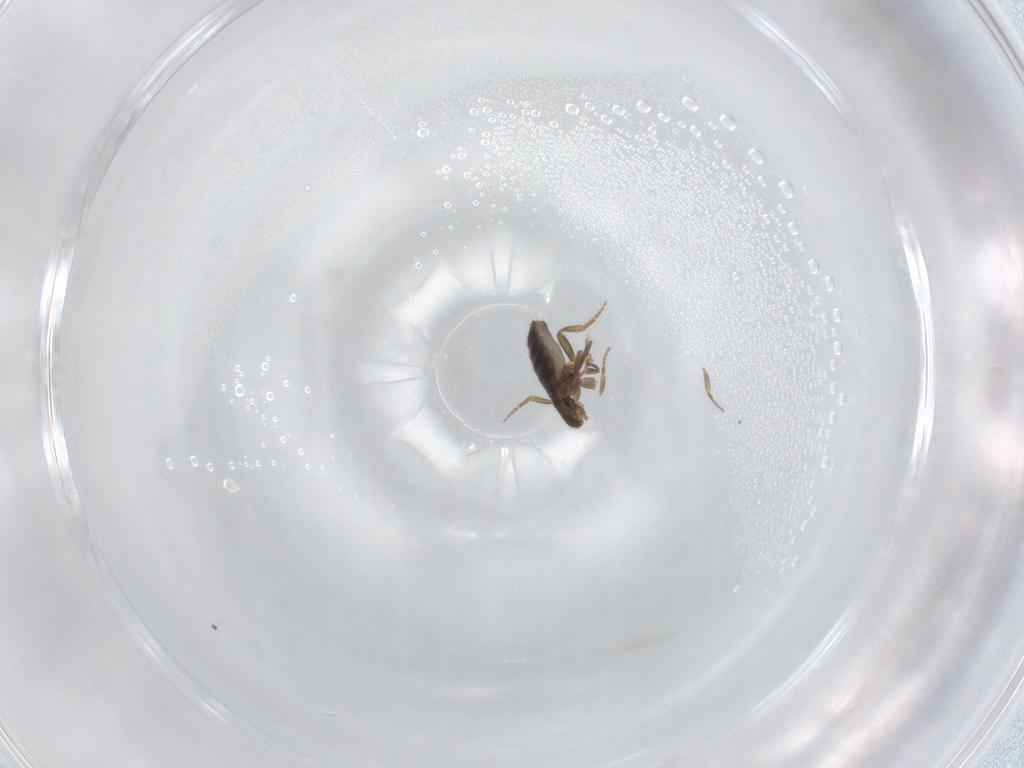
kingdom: Animalia
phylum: Arthropoda
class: Insecta
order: Diptera
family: Phoridae
